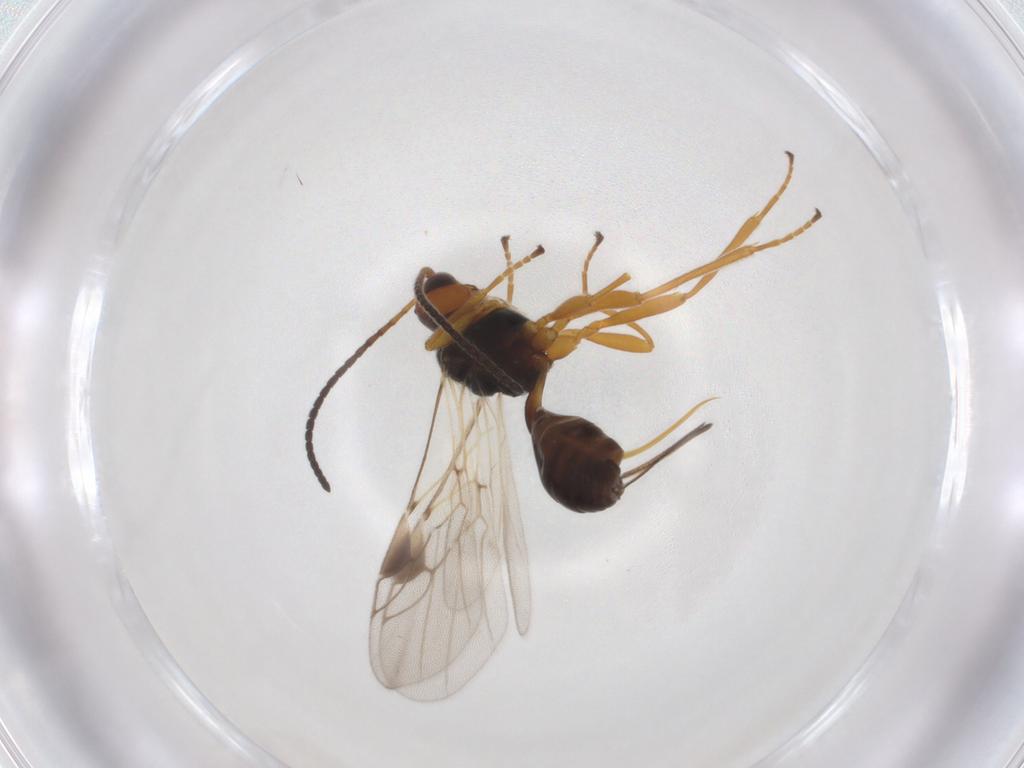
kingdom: Animalia
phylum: Arthropoda
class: Insecta
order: Hymenoptera
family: Braconidae
